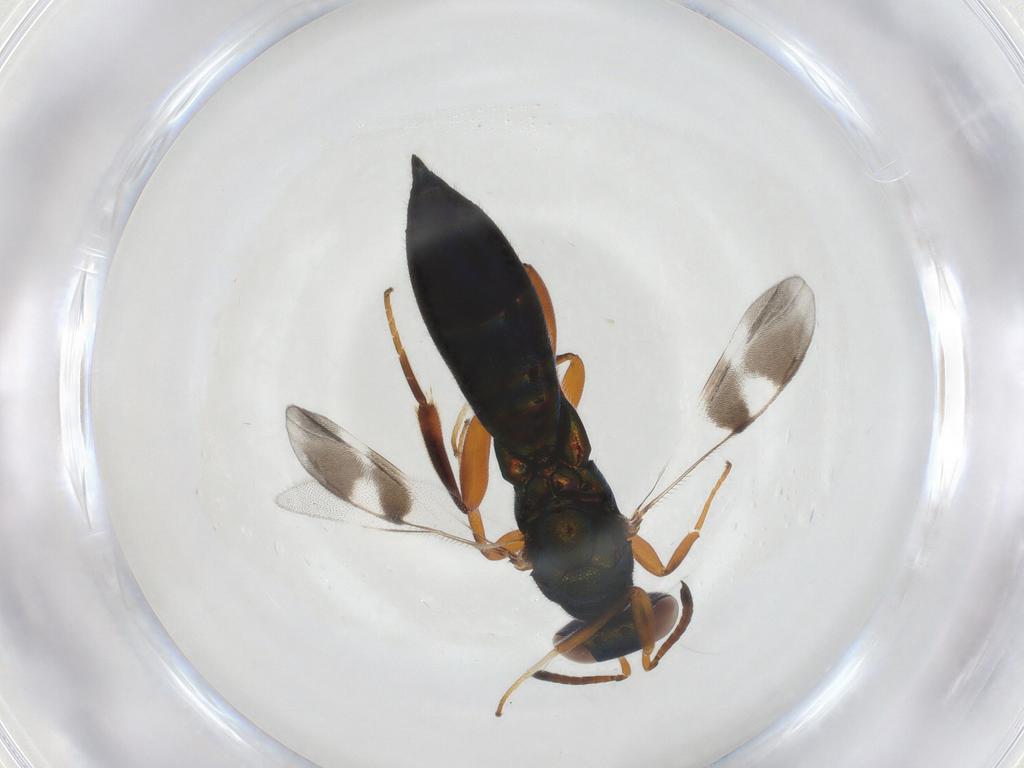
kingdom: Animalia
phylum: Arthropoda
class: Insecta
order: Hymenoptera
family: Cleonyminae
